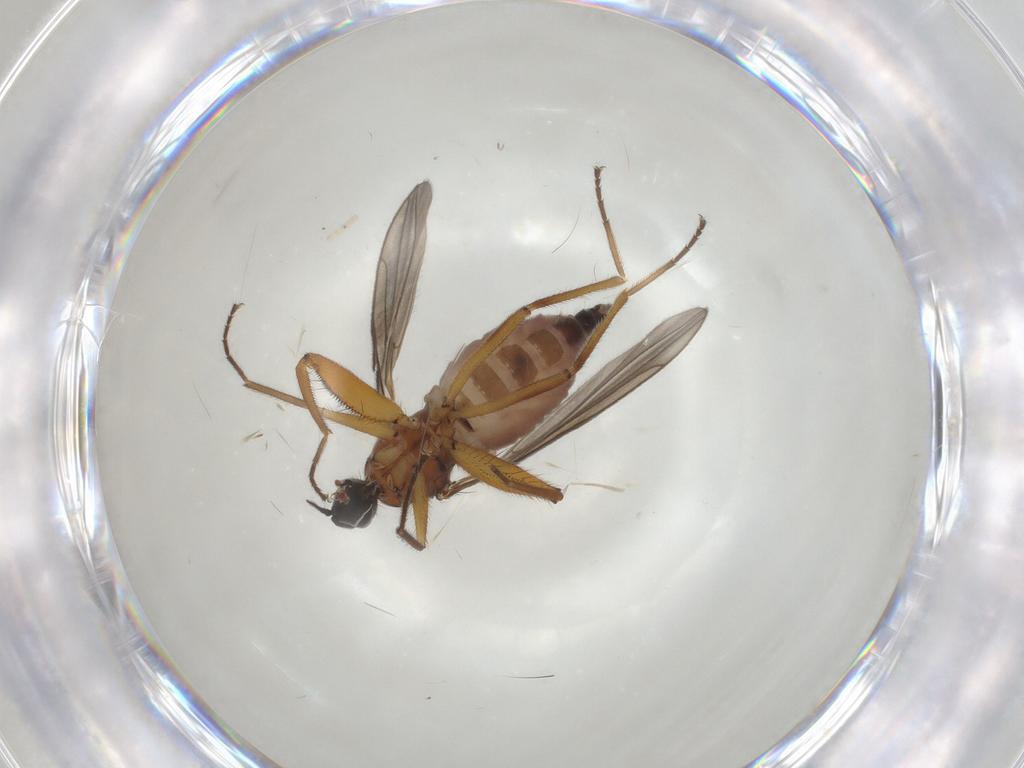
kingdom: Animalia
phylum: Arthropoda
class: Insecta
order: Diptera
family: Hybotidae
